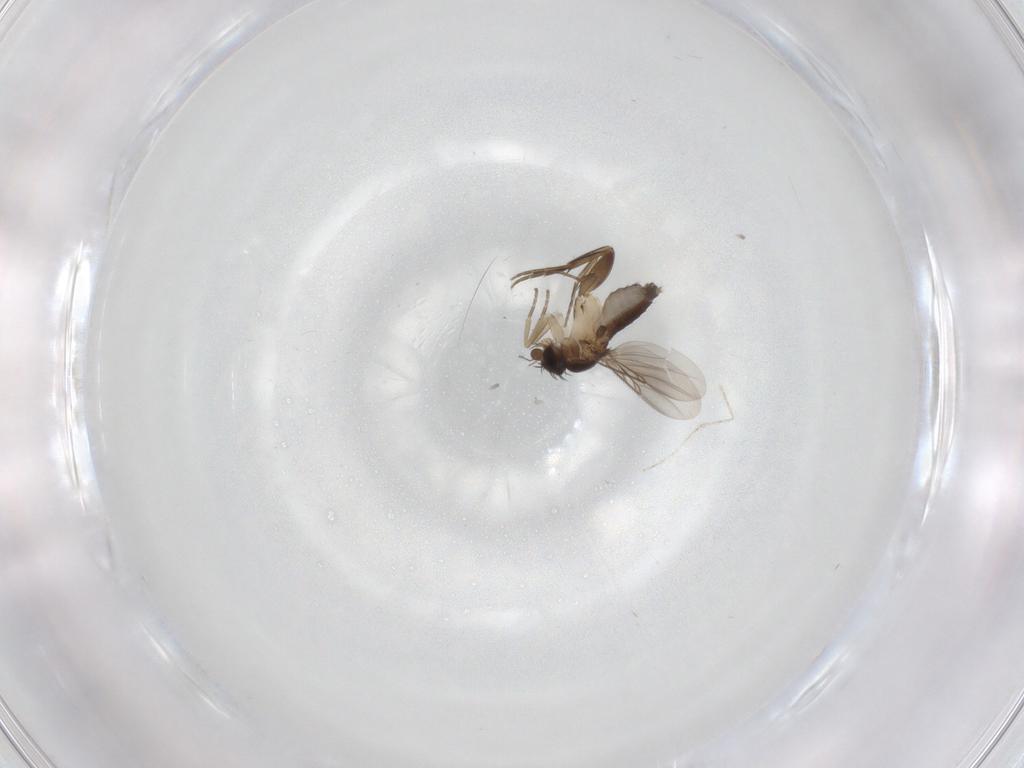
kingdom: Animalia
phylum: Arthropoda
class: Insecta
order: Diptera
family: Phoridae
